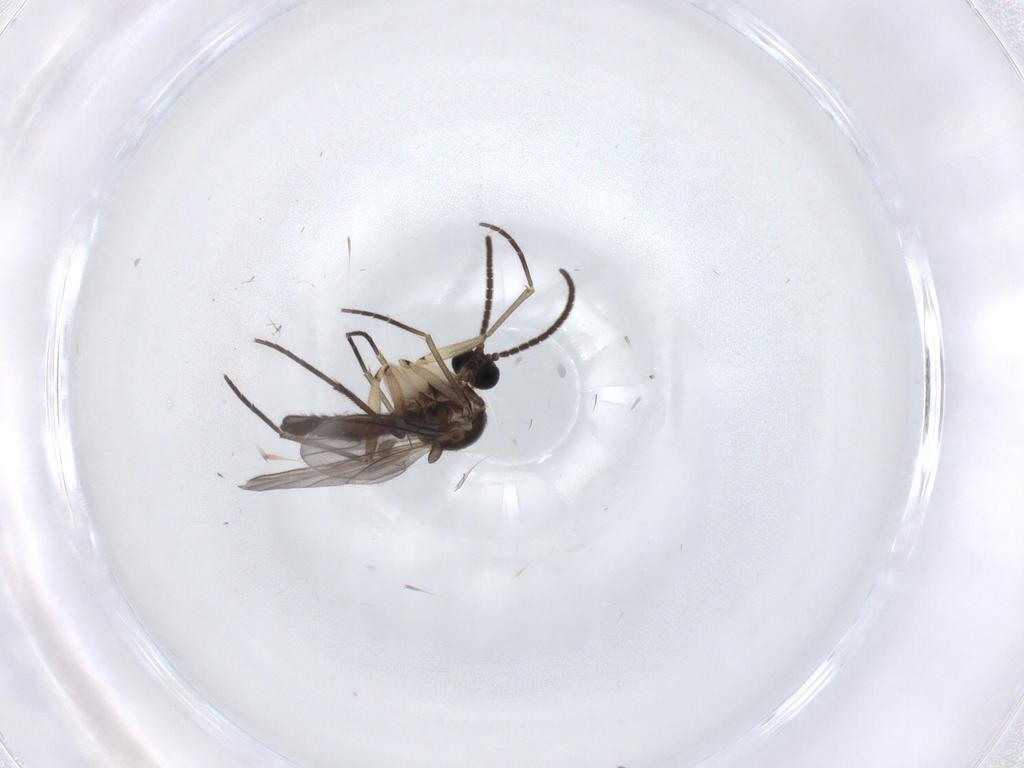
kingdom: Animalia
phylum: Arthropoda
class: Insecta
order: Diptera
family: Sciaridae
